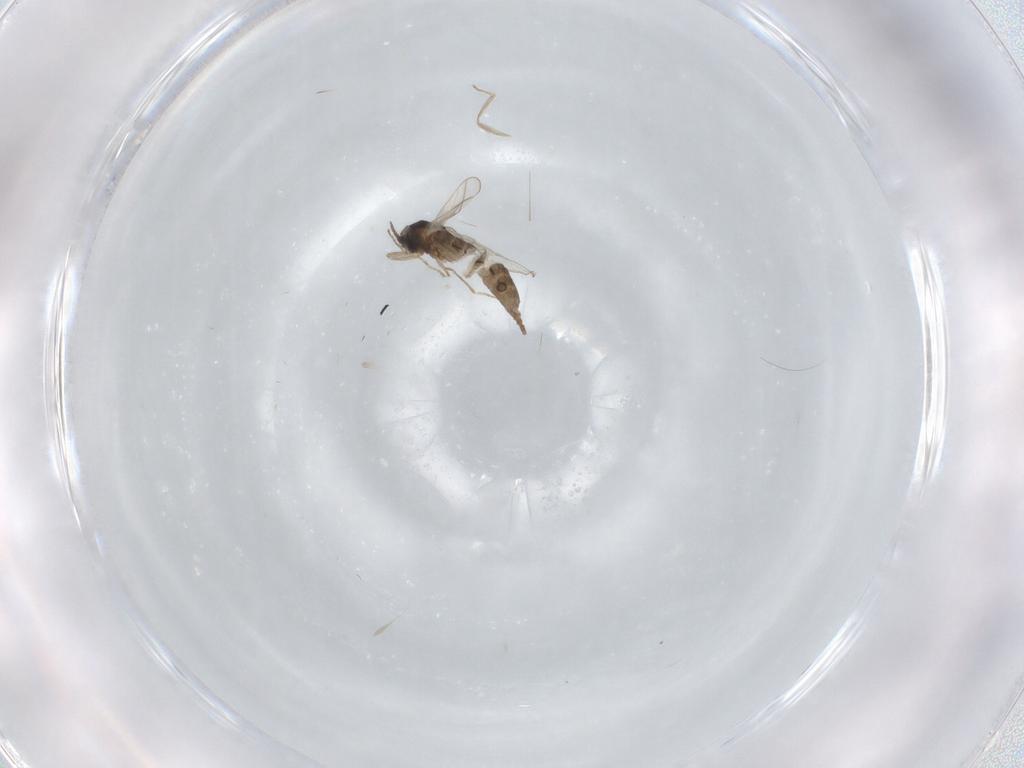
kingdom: Animalia
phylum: Arthropoda
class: Insecta
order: Diptera
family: Cecidomyiidae
